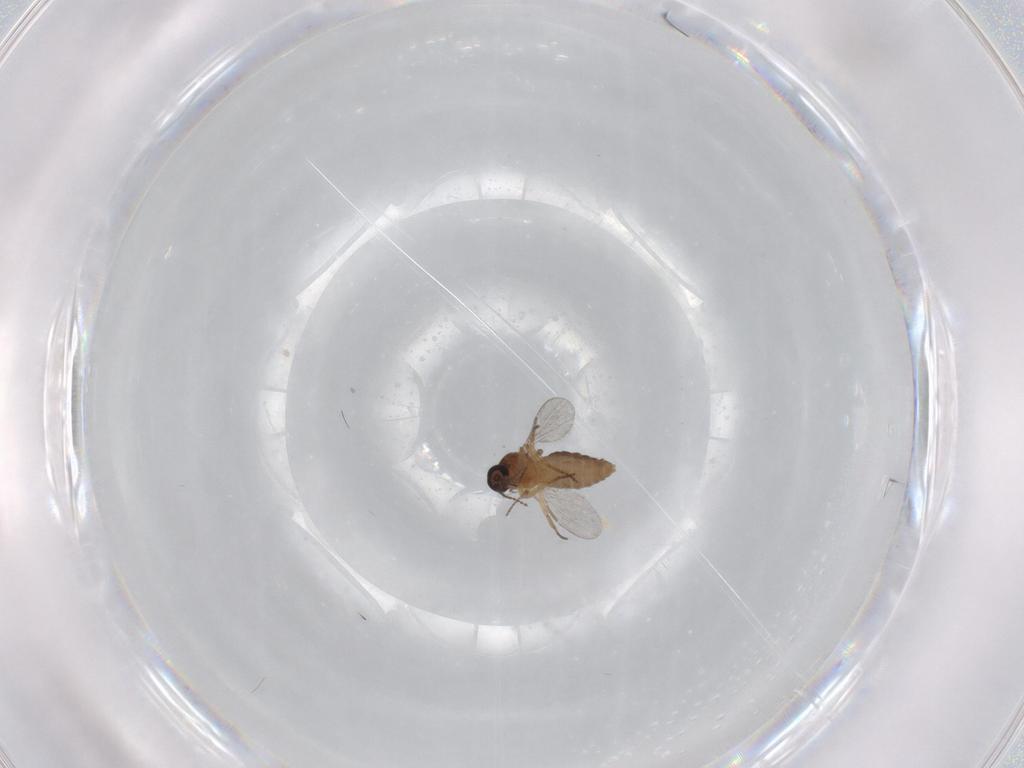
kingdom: Animalia
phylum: Arthropoda
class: Insecta
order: Diptera
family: Ceratopogonidae
